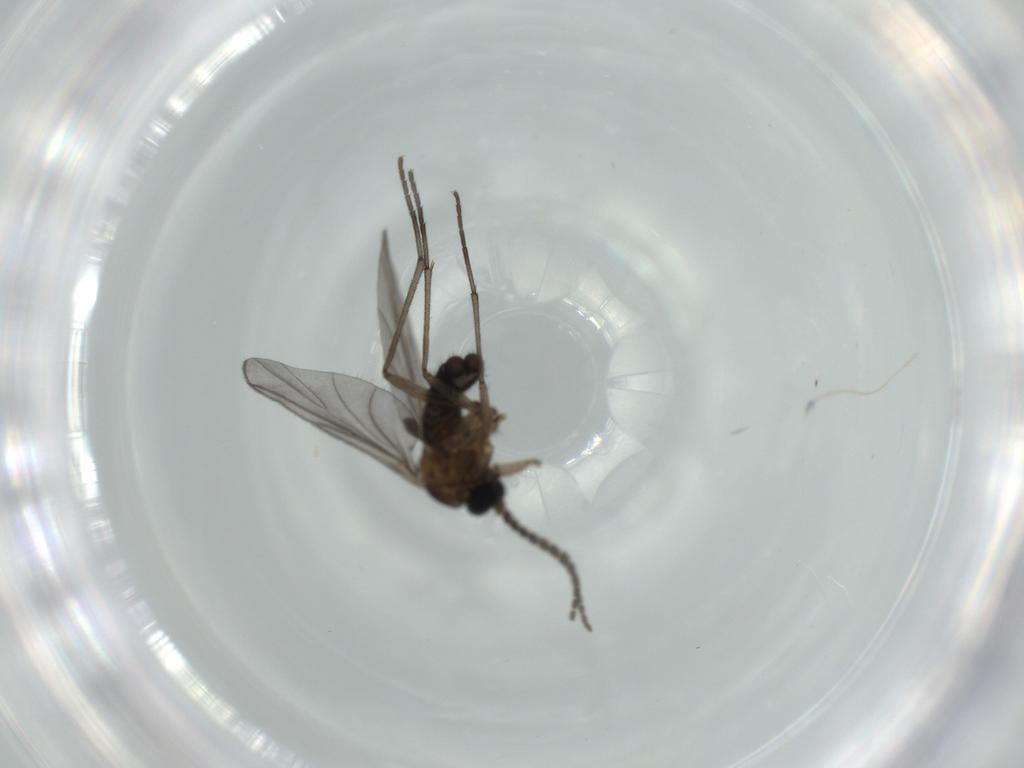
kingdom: Animalia
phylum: Arthropoda
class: Insecta
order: Diptera
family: Sciaridae
